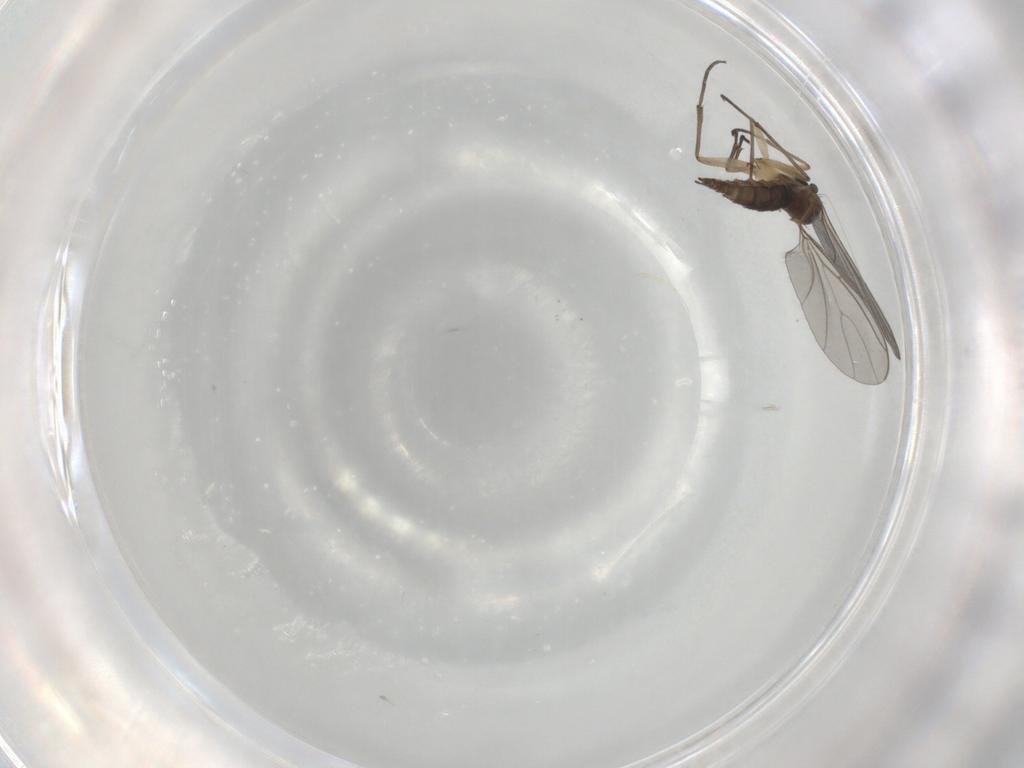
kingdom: Animalia
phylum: Arthropoda
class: Insecta
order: Diptera
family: Sciaridae
